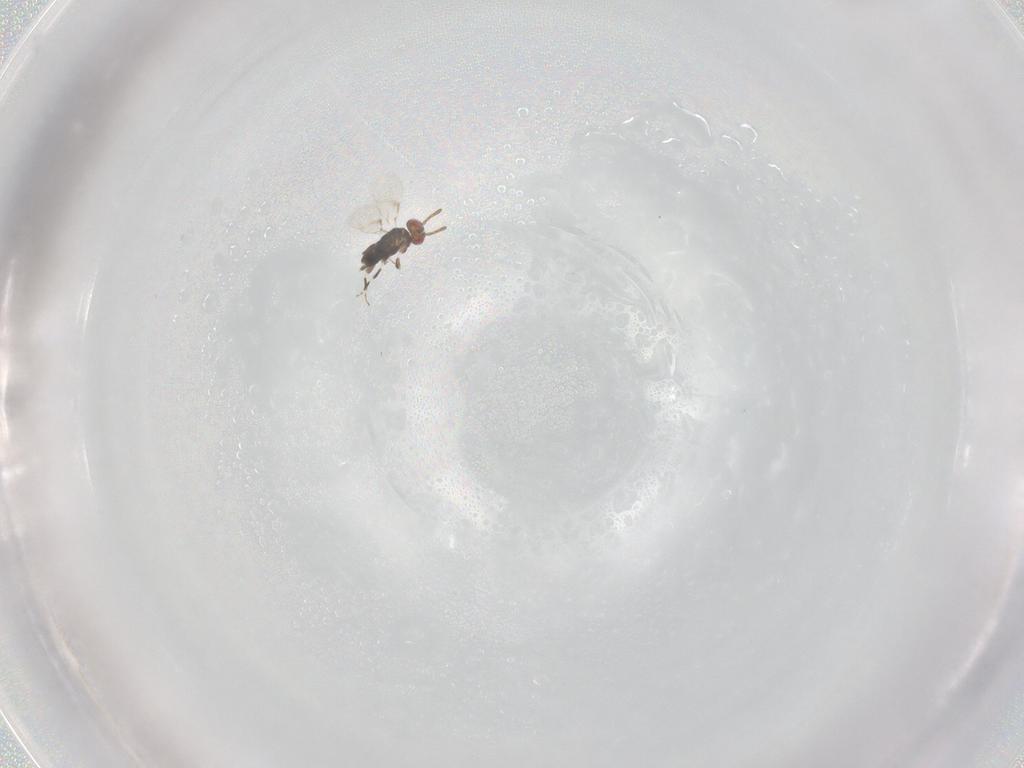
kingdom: Animalia
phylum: Arthropoda
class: Insecta
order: Hymenoptera
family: Azotidae
